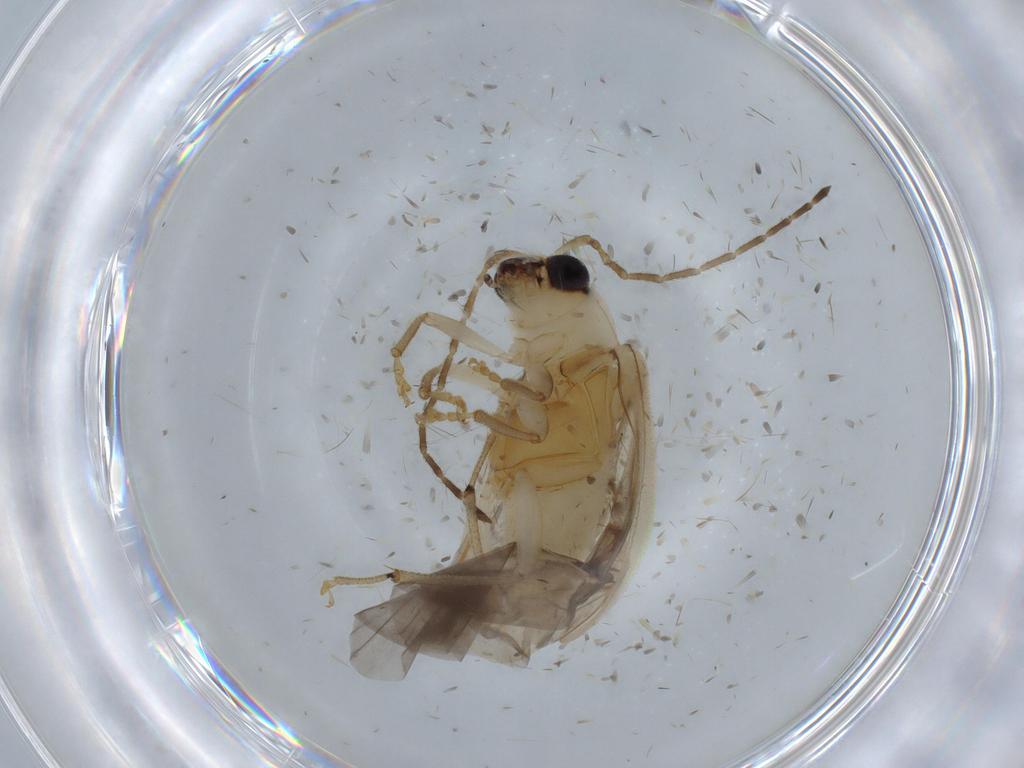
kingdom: Animalia
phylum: Arthropoda
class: Insecta
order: Coleoptera
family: Chrysomelidae
